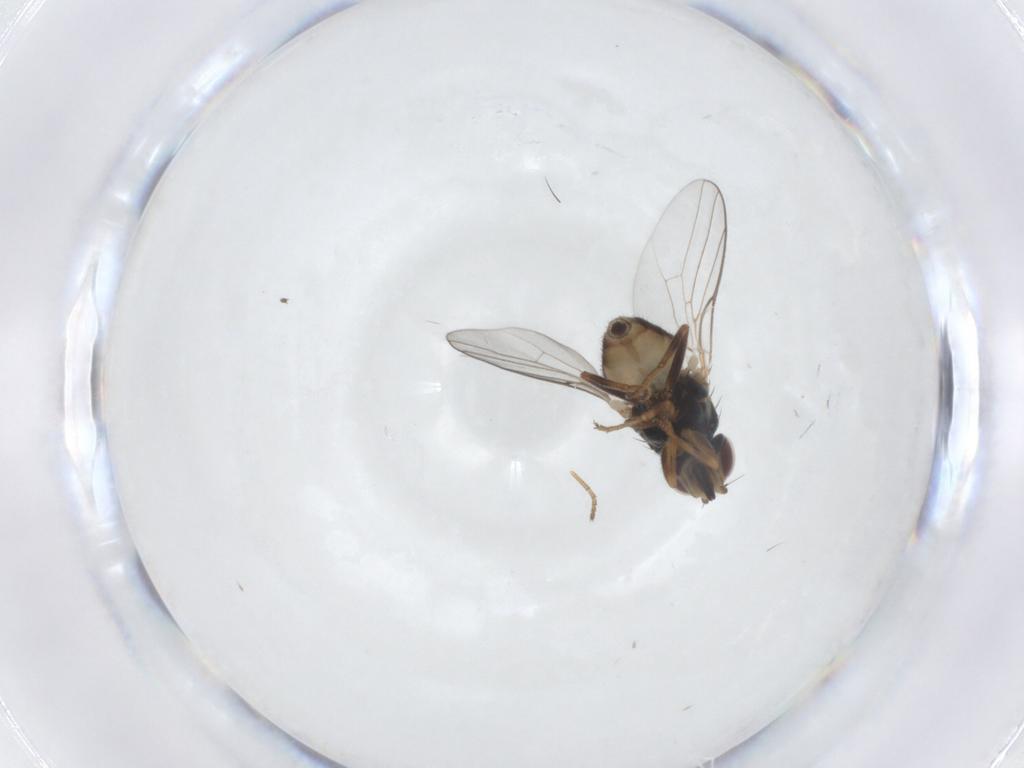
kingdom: Animalia
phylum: Arthropoda
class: Insecta
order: Diptera
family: Chloropidae
